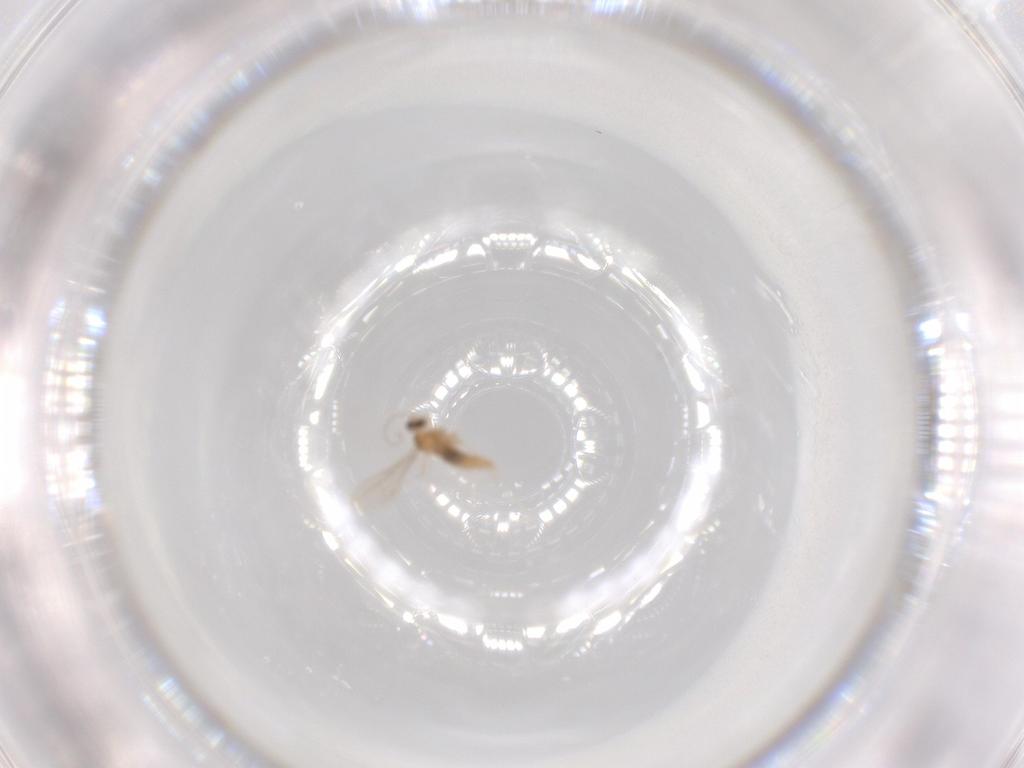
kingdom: Animalia
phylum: Arthropoda
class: Insecta
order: Diptera
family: Cecidomyiidae
